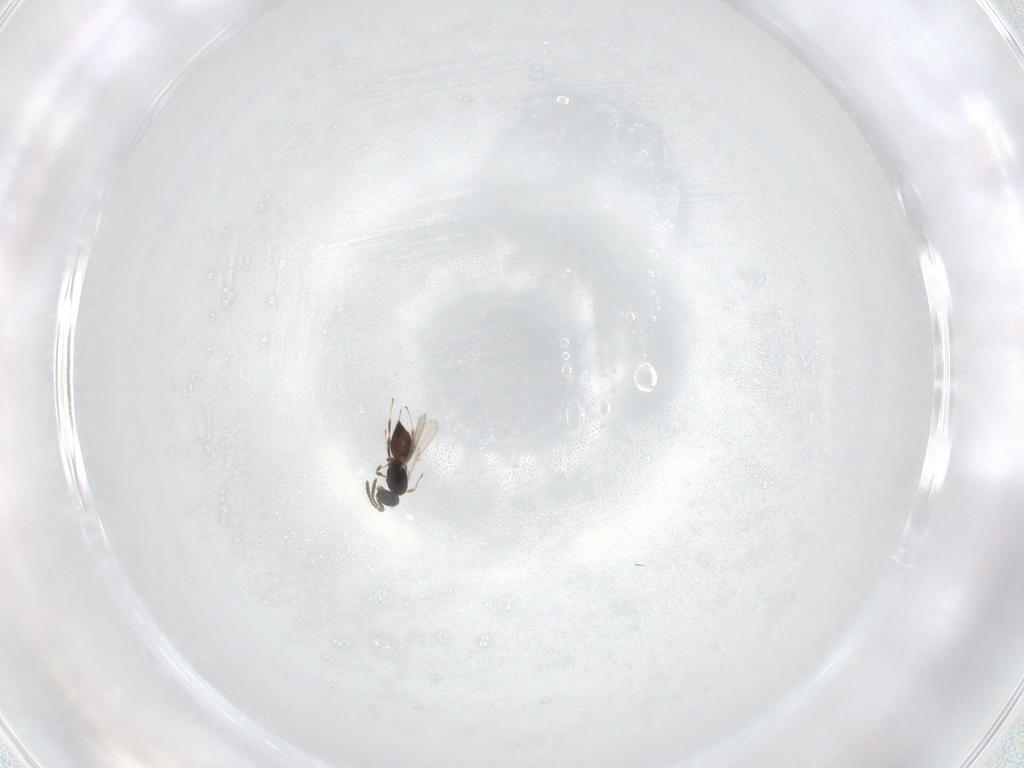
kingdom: Animalia
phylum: Arthropoda
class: Insecta
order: Hymenoptera
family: Scelionidae
